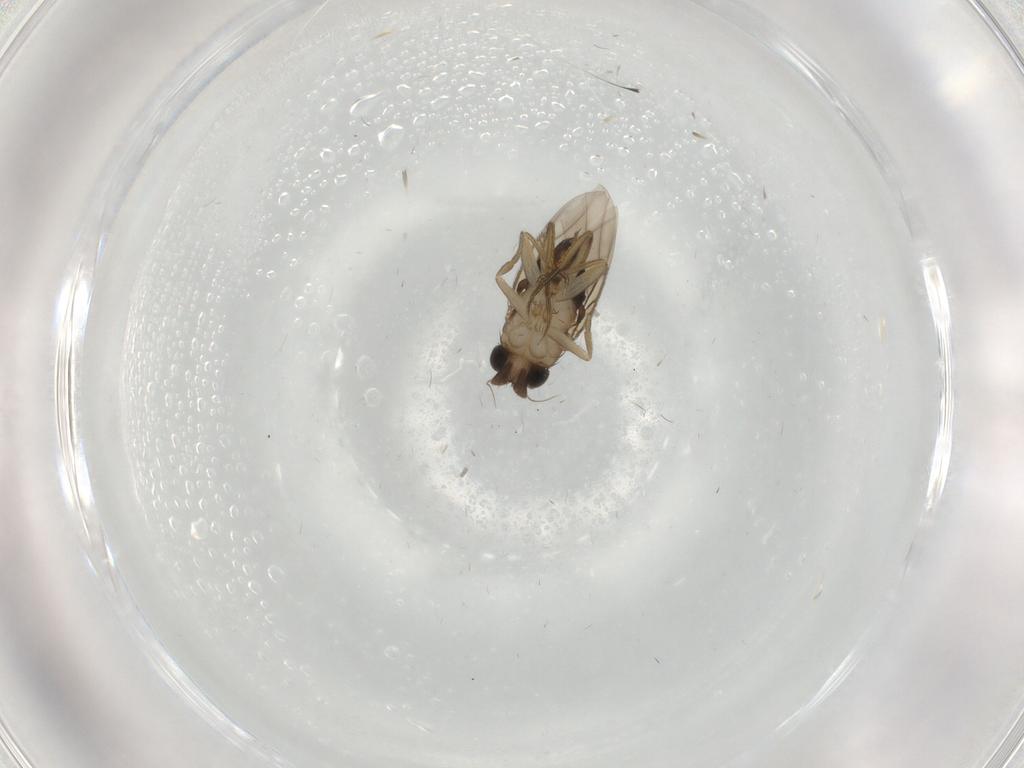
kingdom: Animalia
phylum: Arthropoda
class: Insecta
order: Diptera
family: Phoridae
